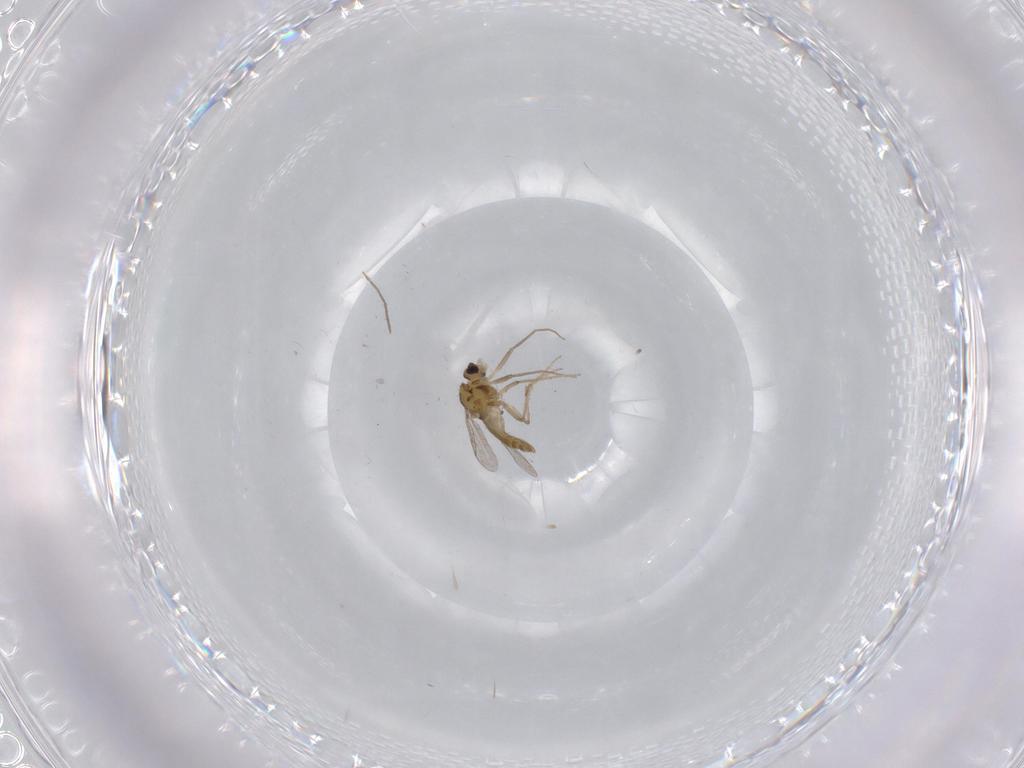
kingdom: Animalia
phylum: Arthropoda
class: Insecta
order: Diptera
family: Chironomidae
